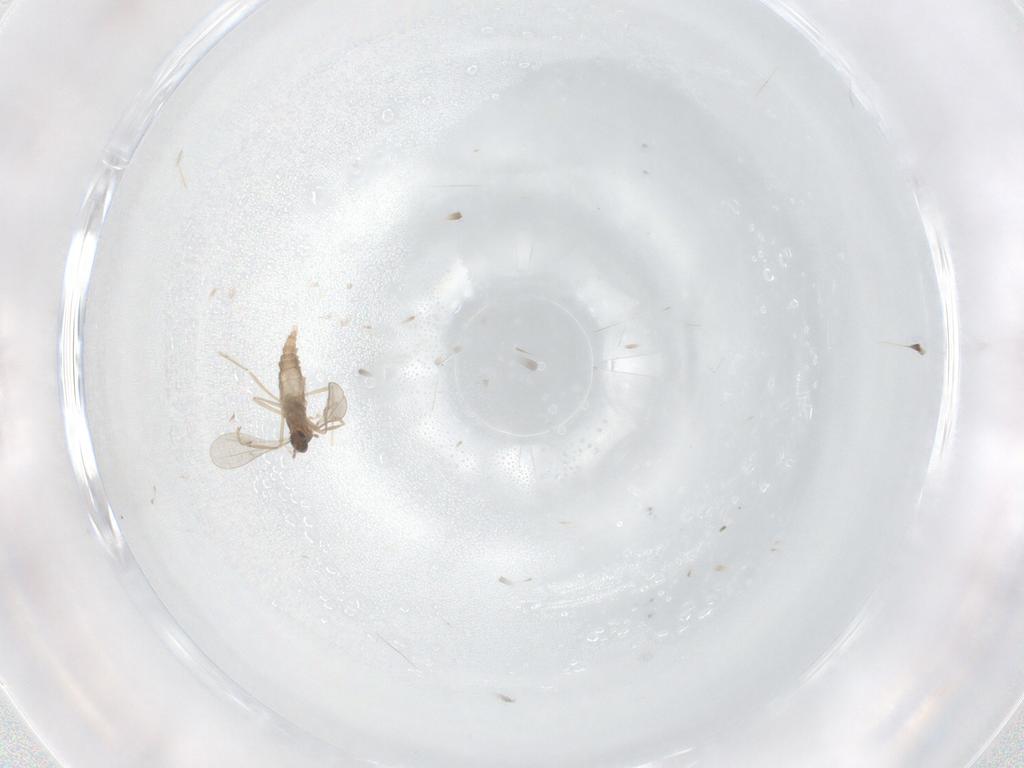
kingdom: Animalia
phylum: Arthropoda
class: Insecta
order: Diptera
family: Cecidomyiidae
